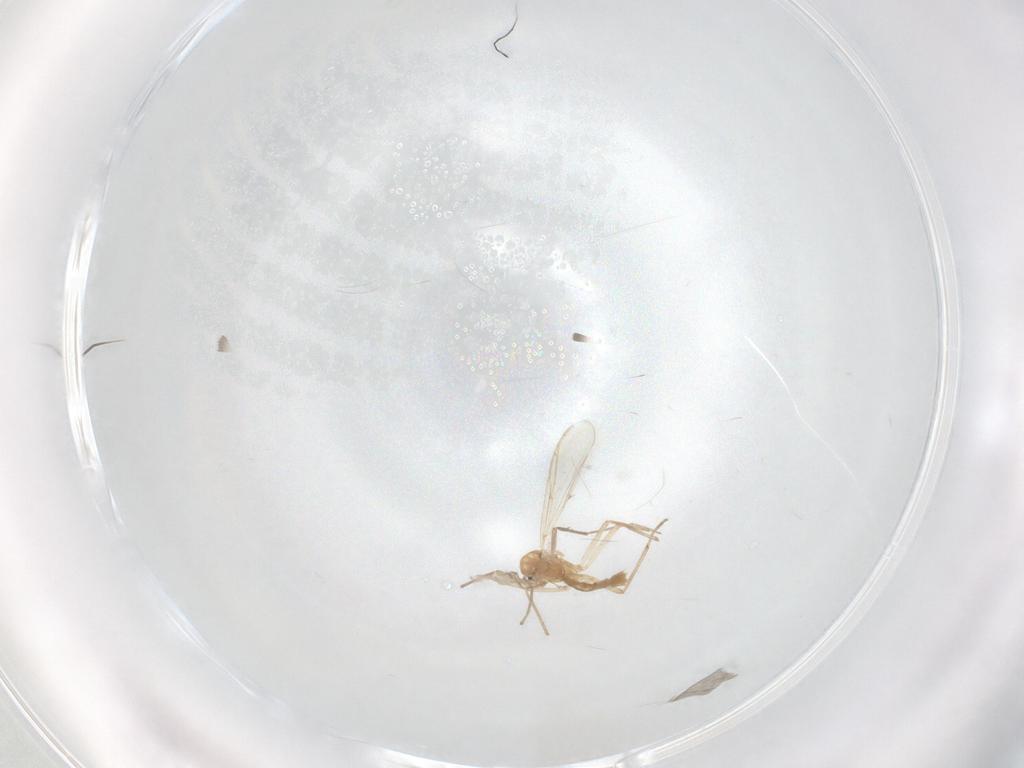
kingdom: Animalia
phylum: Arthropoda
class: Insecta
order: Diptera
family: Chironomidae
